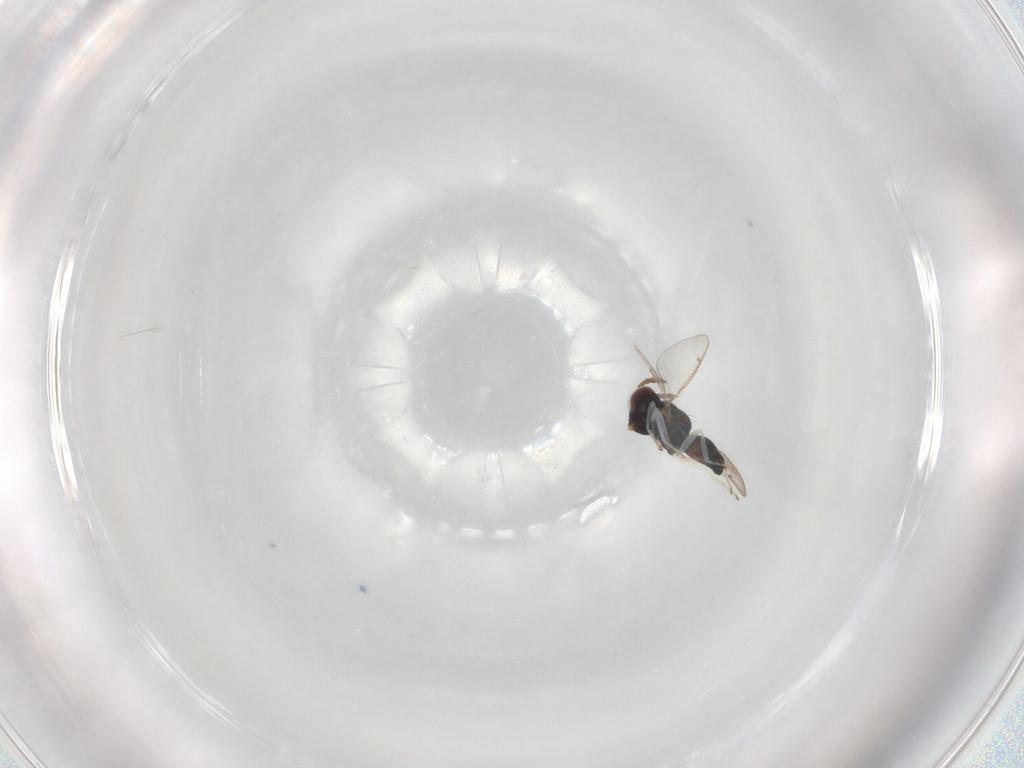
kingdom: Animalia
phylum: Arthropoda
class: Insecta
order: Hymenoptera
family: Eulophidae
